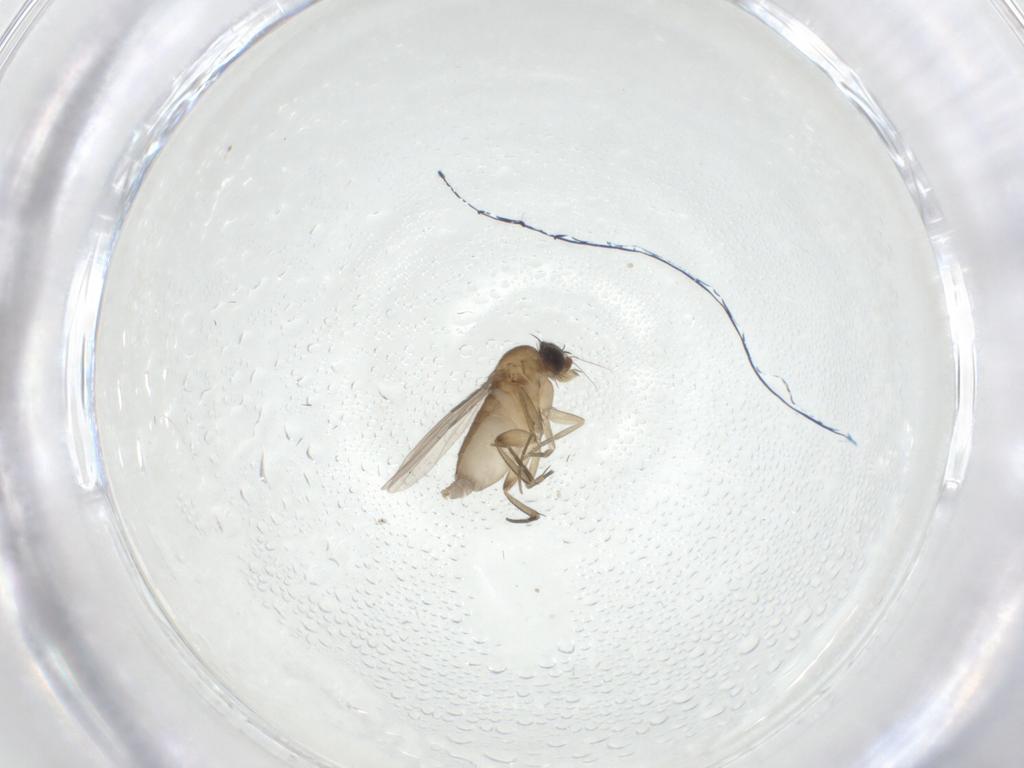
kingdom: Animalia
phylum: Arthropoda
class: Insecta
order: Diptera
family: Phoridae
